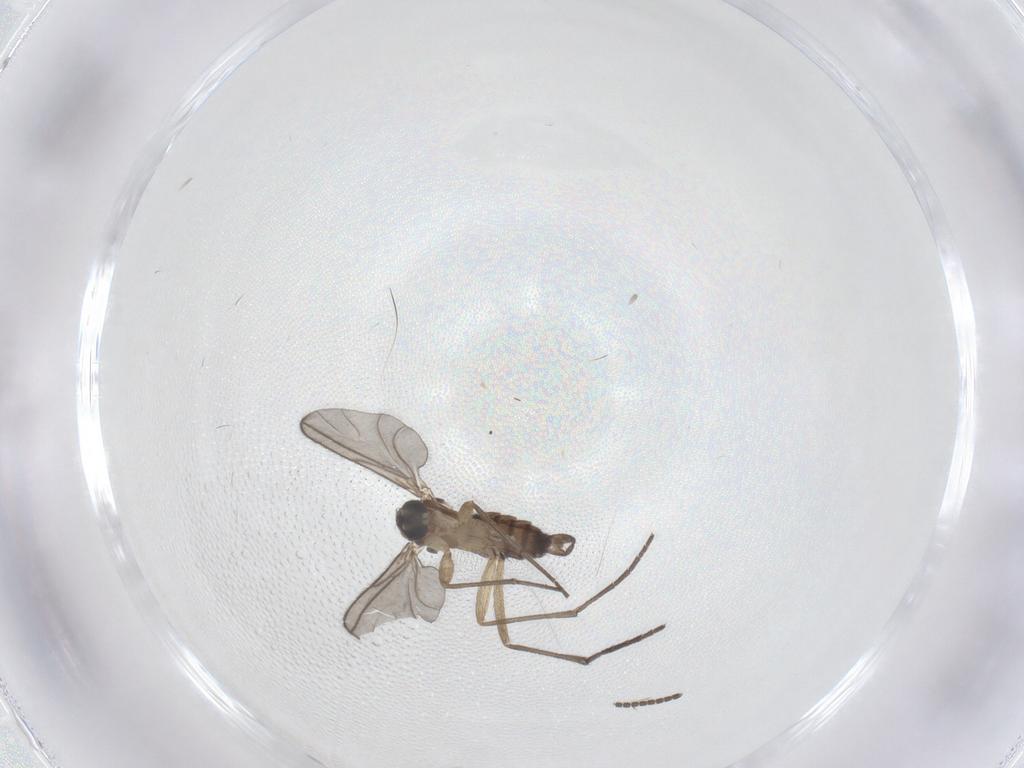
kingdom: Animalia
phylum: Arthropoda
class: Insecta
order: Diptera
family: Sciaridae
